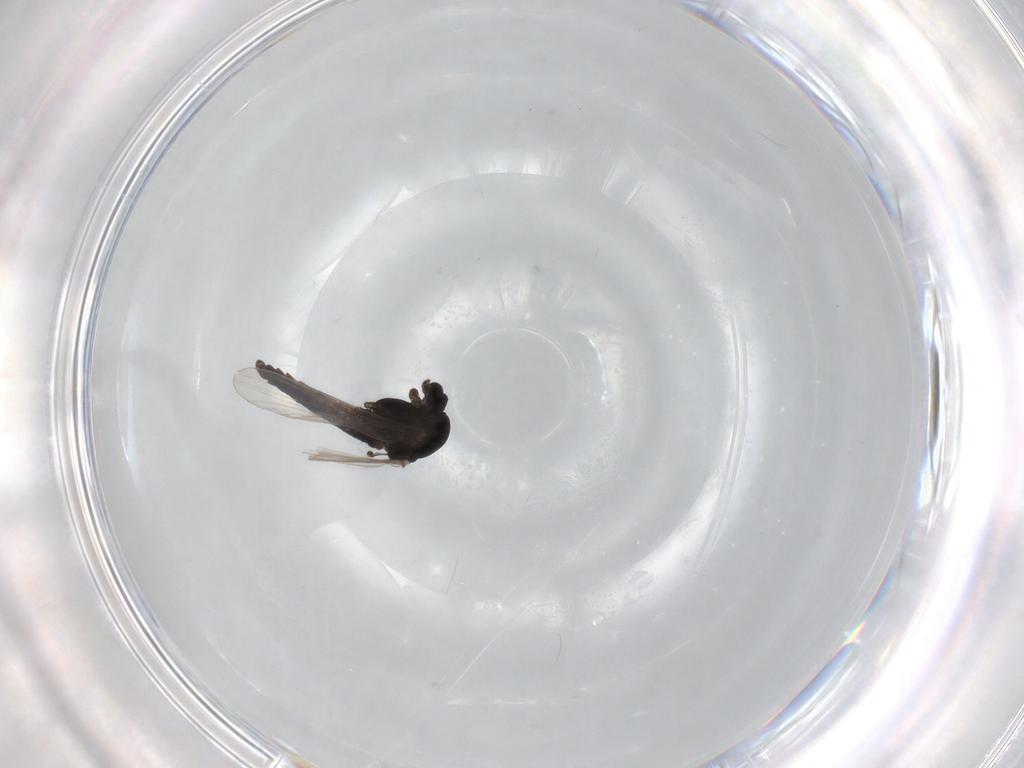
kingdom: Animalia
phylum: Arthropoda
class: Insecta
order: Diptera
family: Chironomidae
